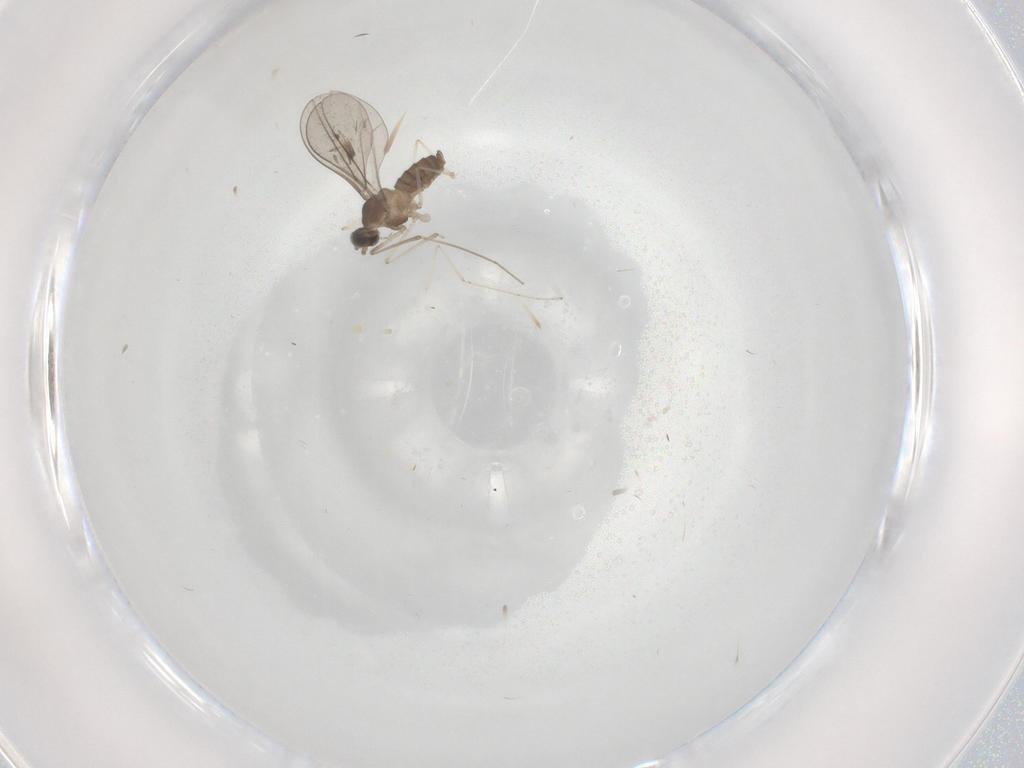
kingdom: Animalia
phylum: Arthropoda
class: Insecta
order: Diptera
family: Cecidomyiidae
